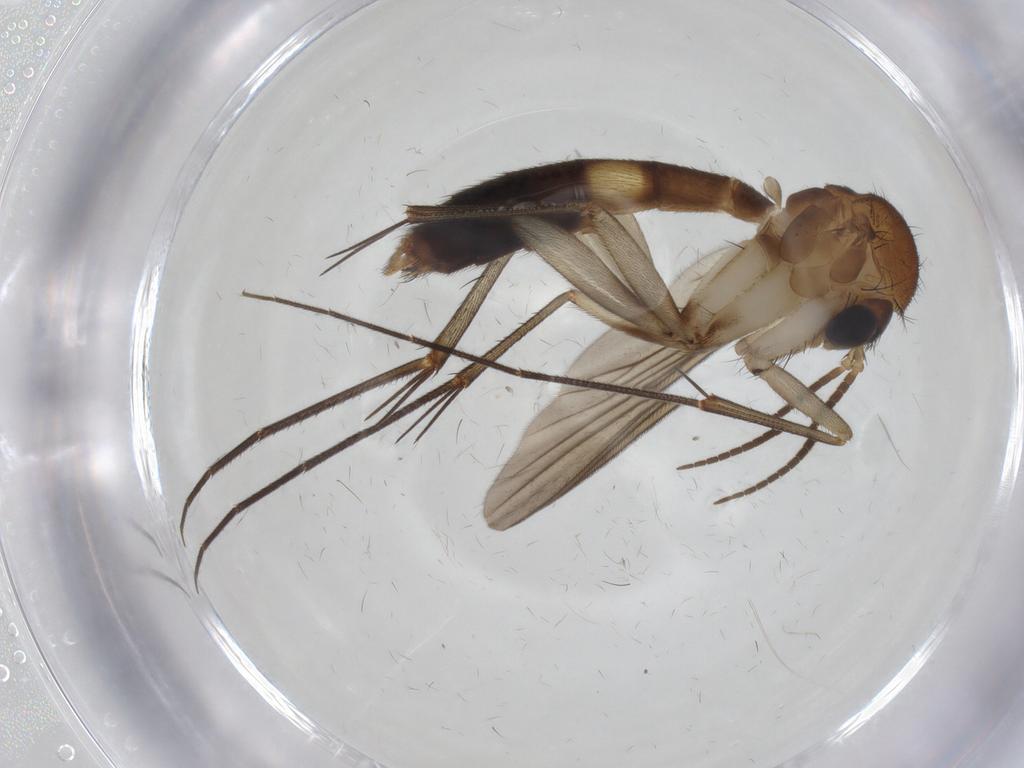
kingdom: Animalia
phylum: Arthropoda
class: Insecta
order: Diptera
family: Mycetophilidae
